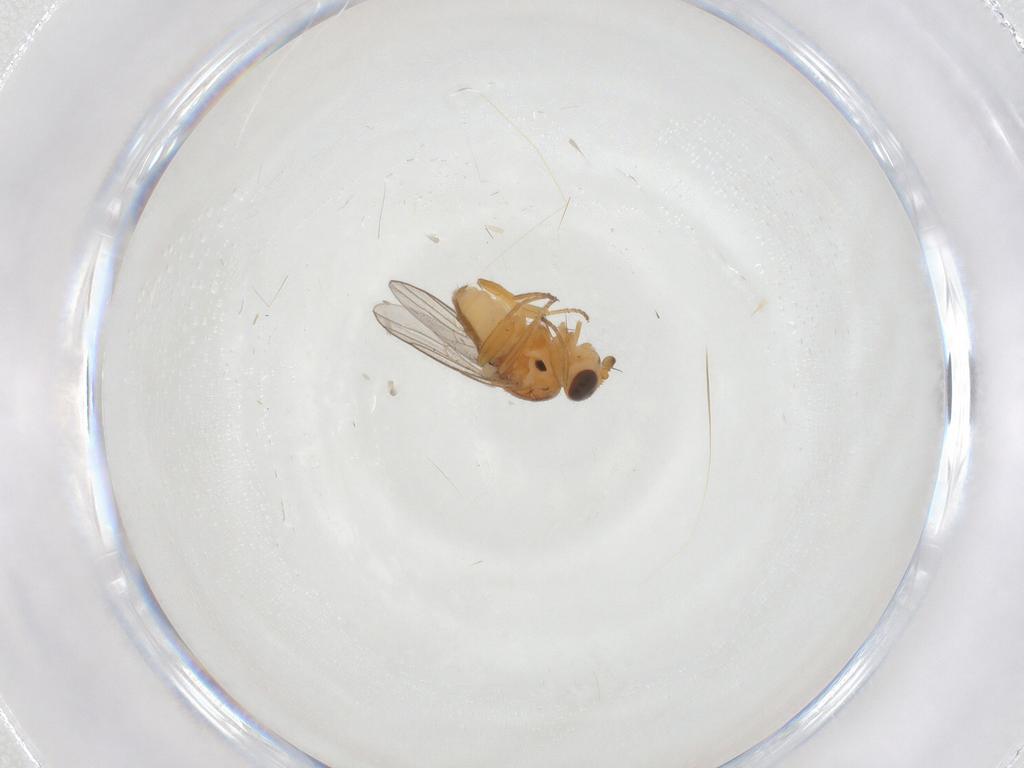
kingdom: Animalia
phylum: Arthropoda
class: Insecta
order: Diptera
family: Chloropidae
